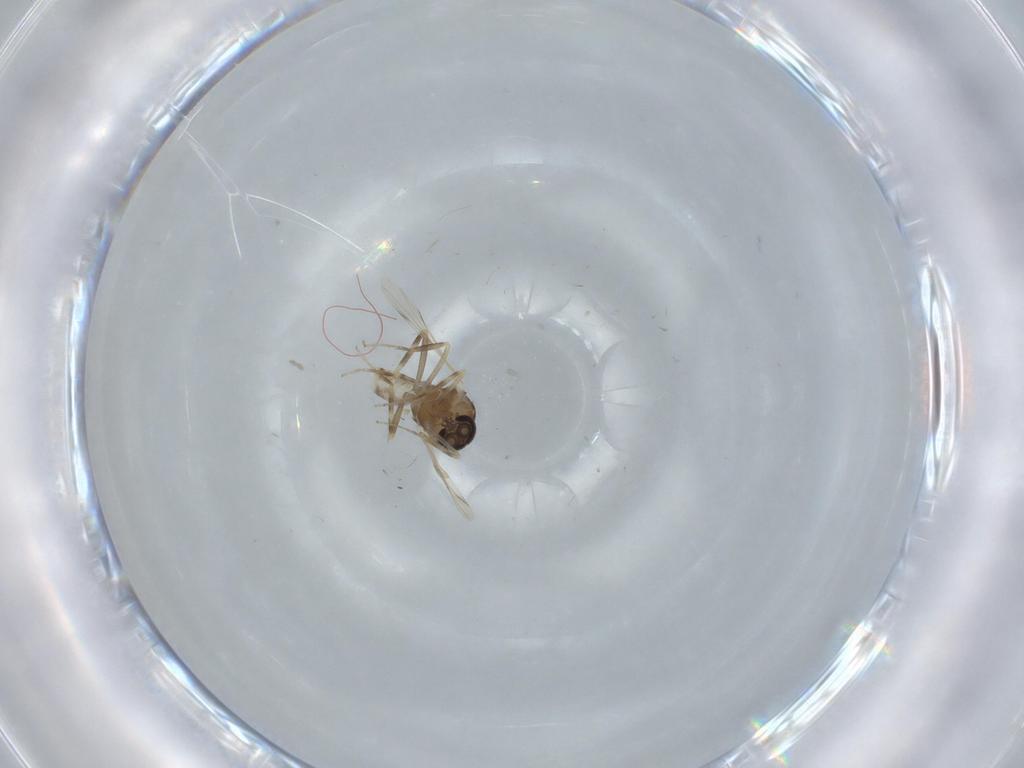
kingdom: Animalia
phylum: Arthropoda
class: Insecta
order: Diptera
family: Ceratopogonidae
